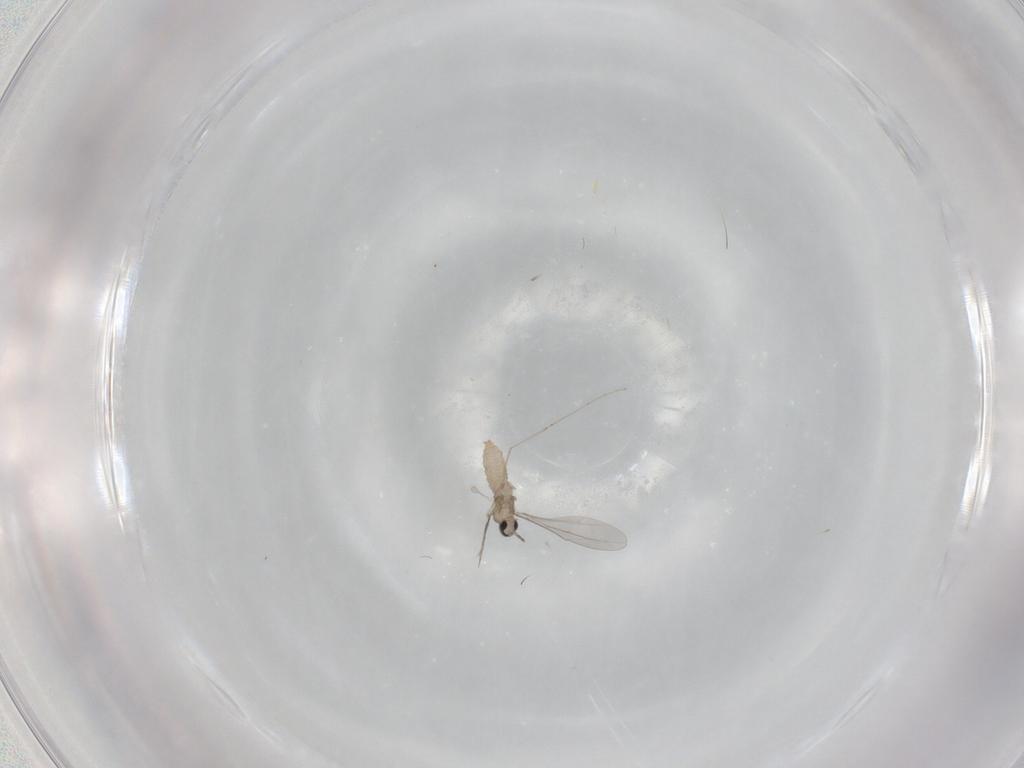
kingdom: Animalia
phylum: Arthropoda
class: Insecta
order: Diptera
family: Cecidomyiidae
